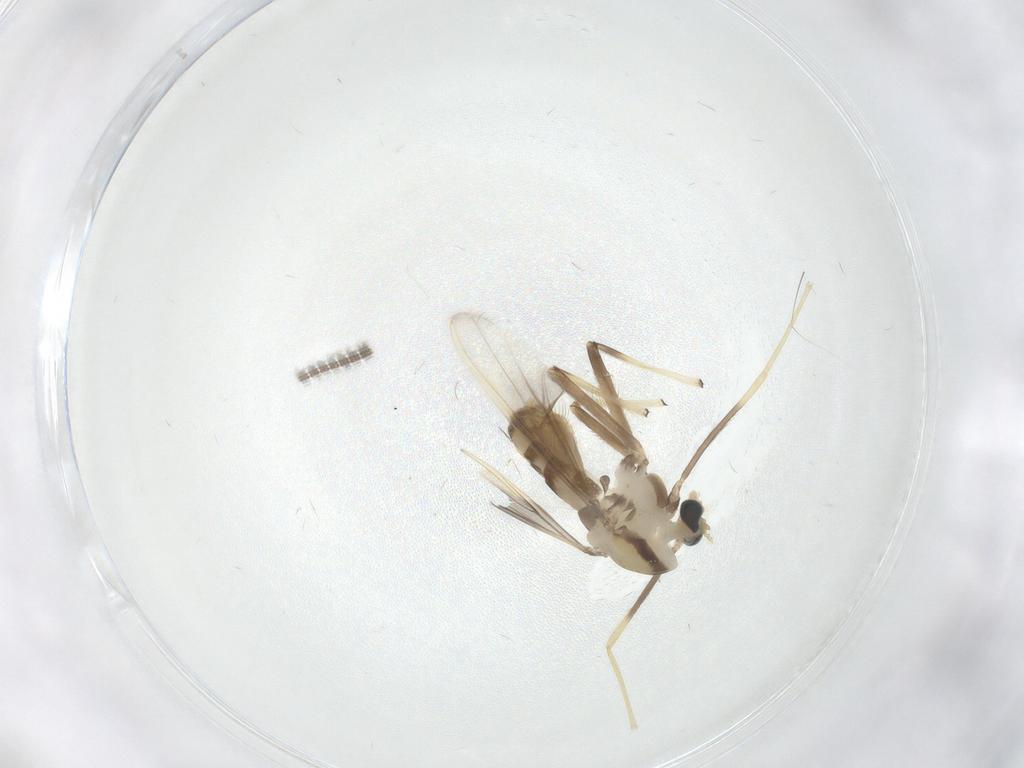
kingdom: Animalia
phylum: Arthropoda
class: Insecta
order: Diptera
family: Chironomidae
